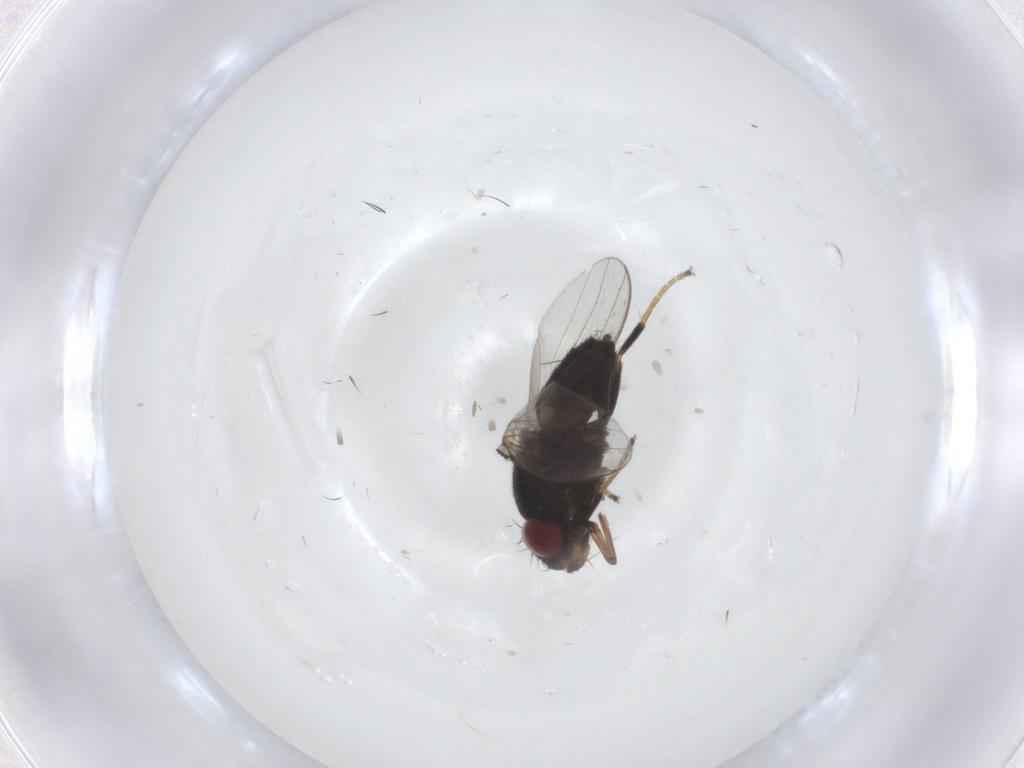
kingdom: Animalia
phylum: Arthropoda
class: Insecta
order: Diptera
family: Milichiidae
